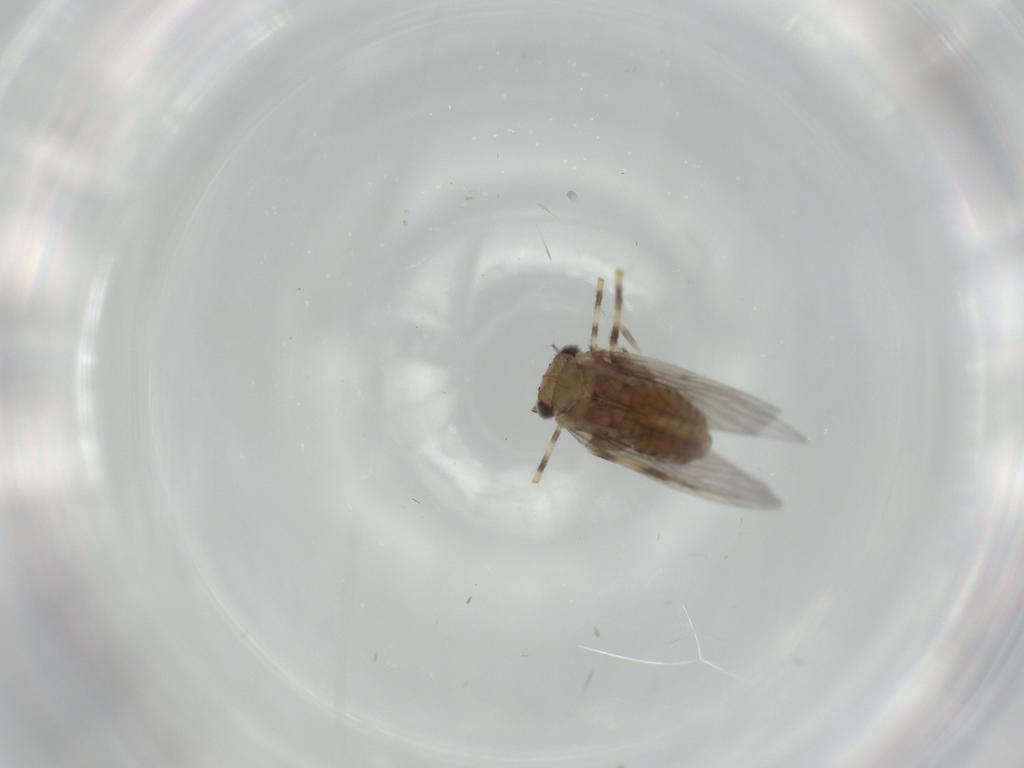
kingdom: Animalia
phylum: Arthropoda
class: Insecta
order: Psocodea
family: Lepidopsocidae
